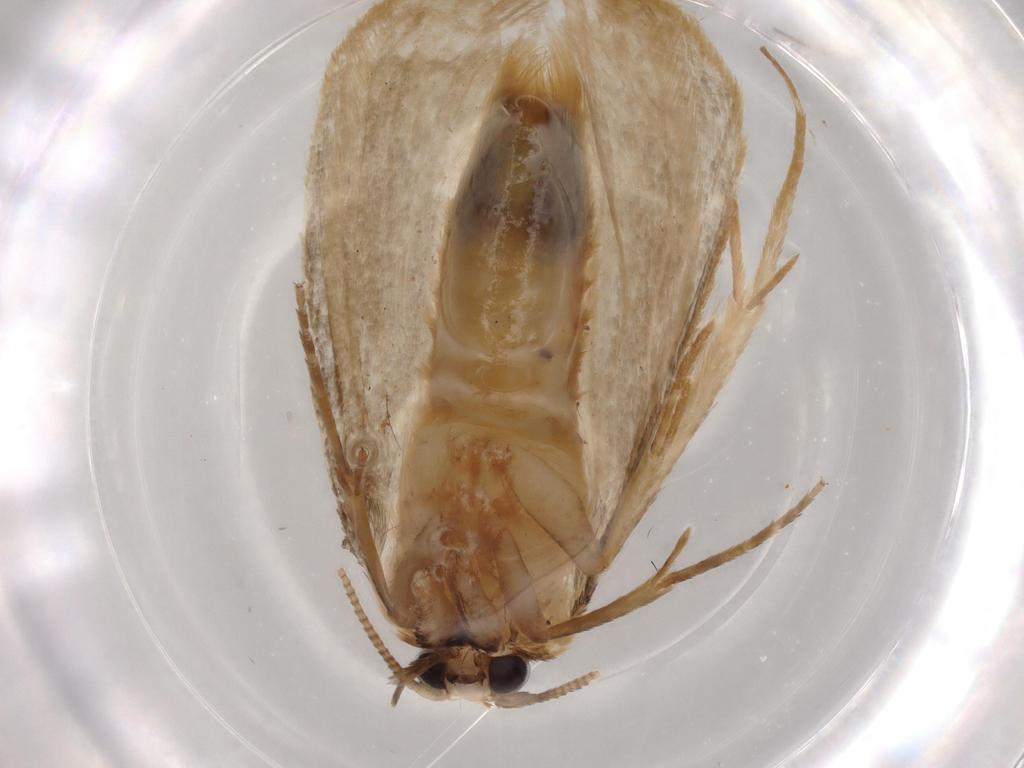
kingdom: Animalia
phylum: Arthropoda
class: Insecta
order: Lepidoptera
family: Tineidae
